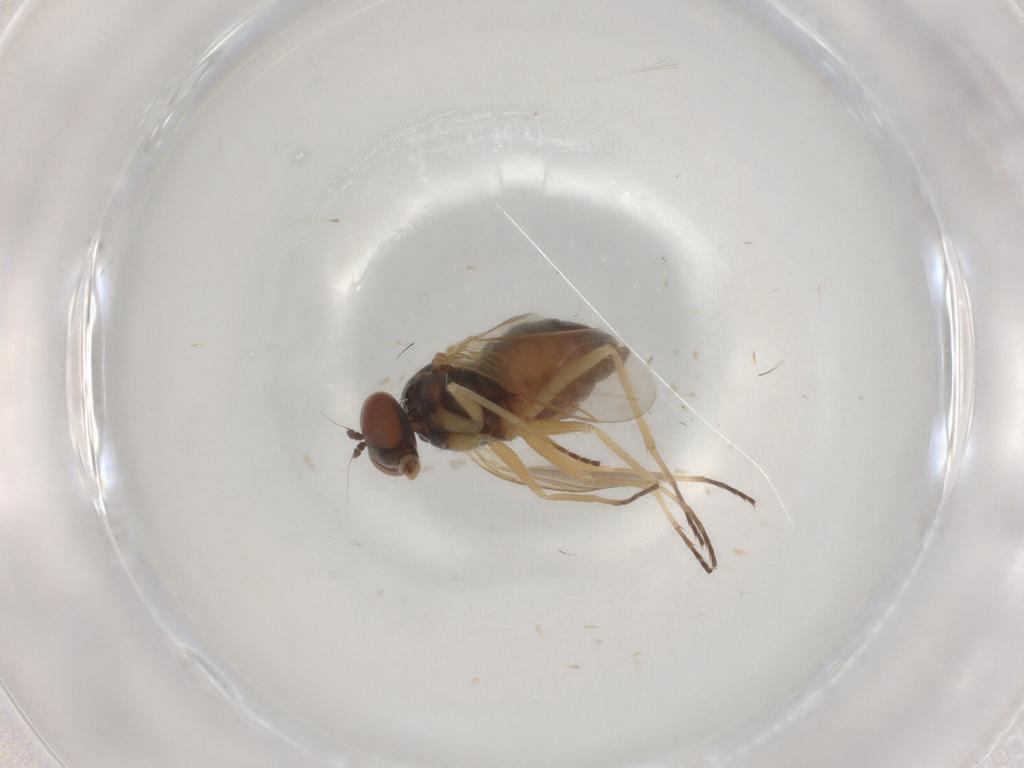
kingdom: Animalia
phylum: Arthropoda
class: Insecta
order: Diptera
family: Dolichopodidae
